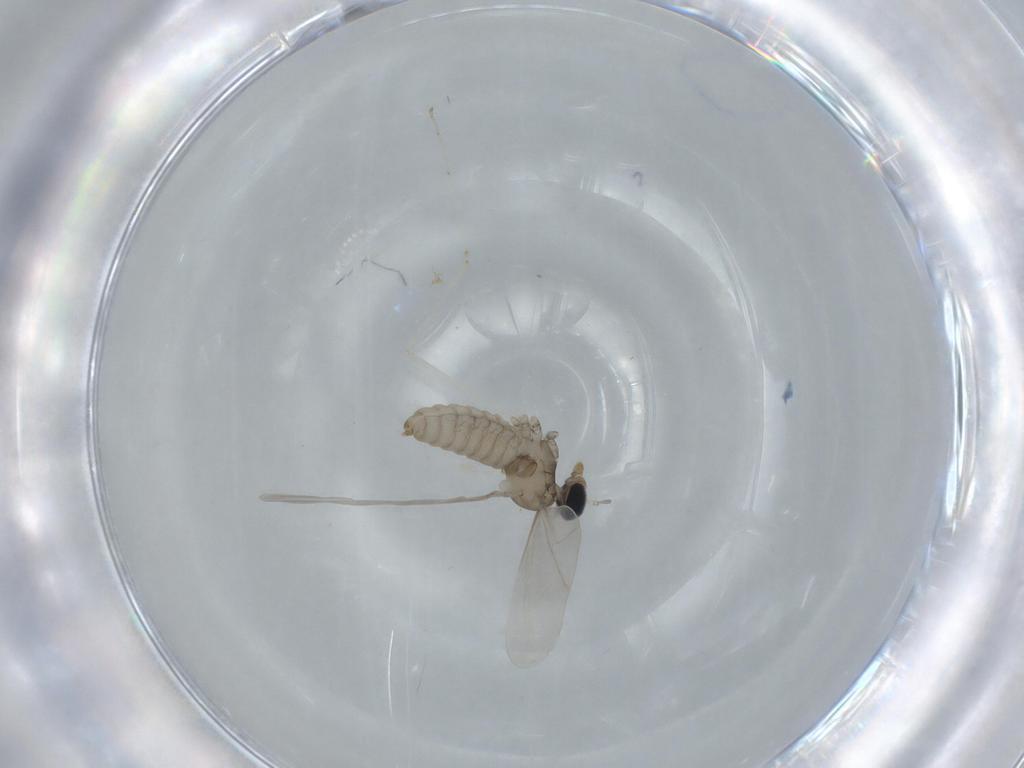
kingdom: Animalia
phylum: Arthropoda
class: Insecta
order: Diptera
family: Cecidomyiidae
